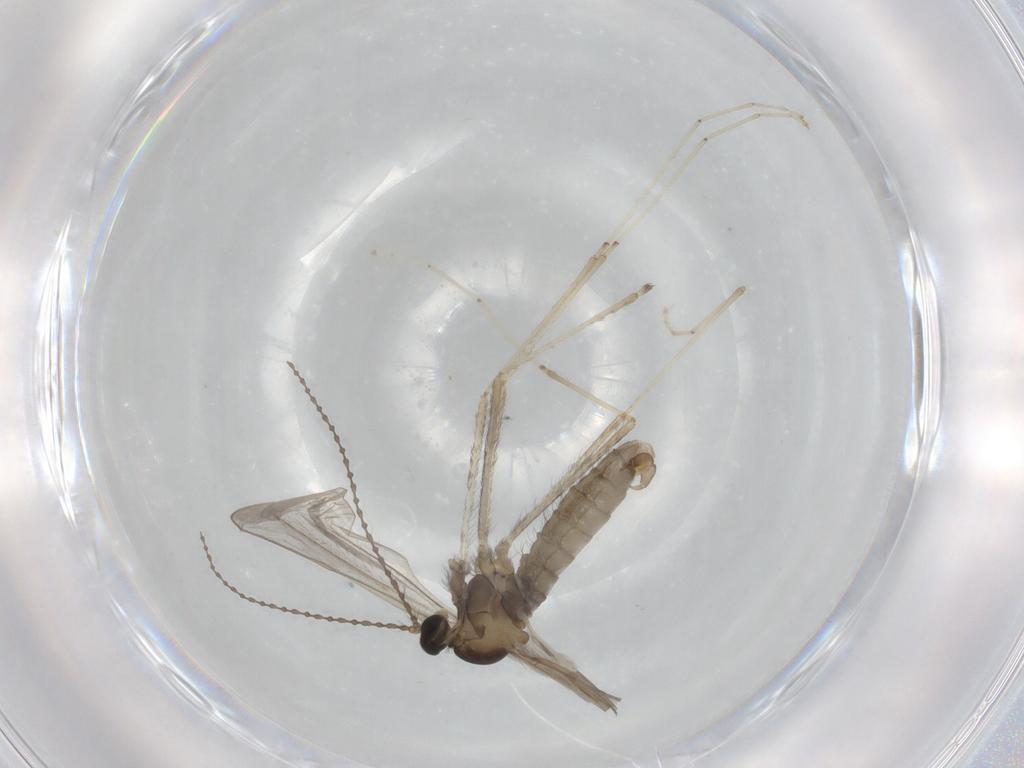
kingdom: Animalia
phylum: Arthropoda
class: Insecta
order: Diptera
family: Cecidomyiidae
